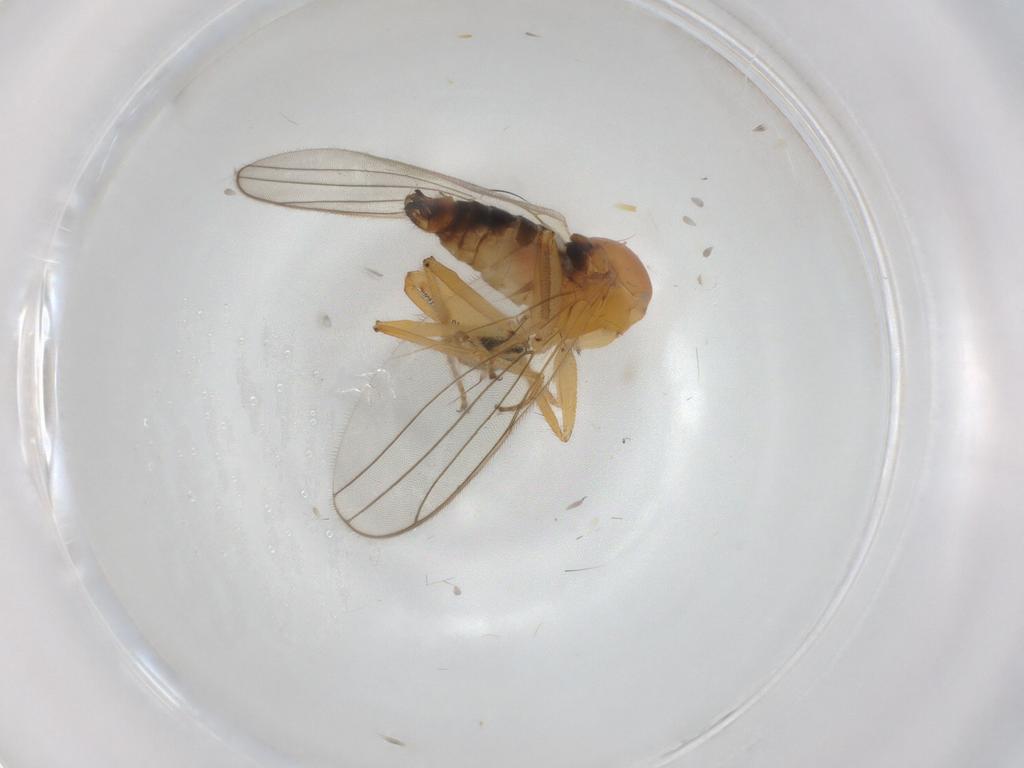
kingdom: Animalia
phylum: Arthropoda
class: Insecta
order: Diptera
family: Hybotidae
